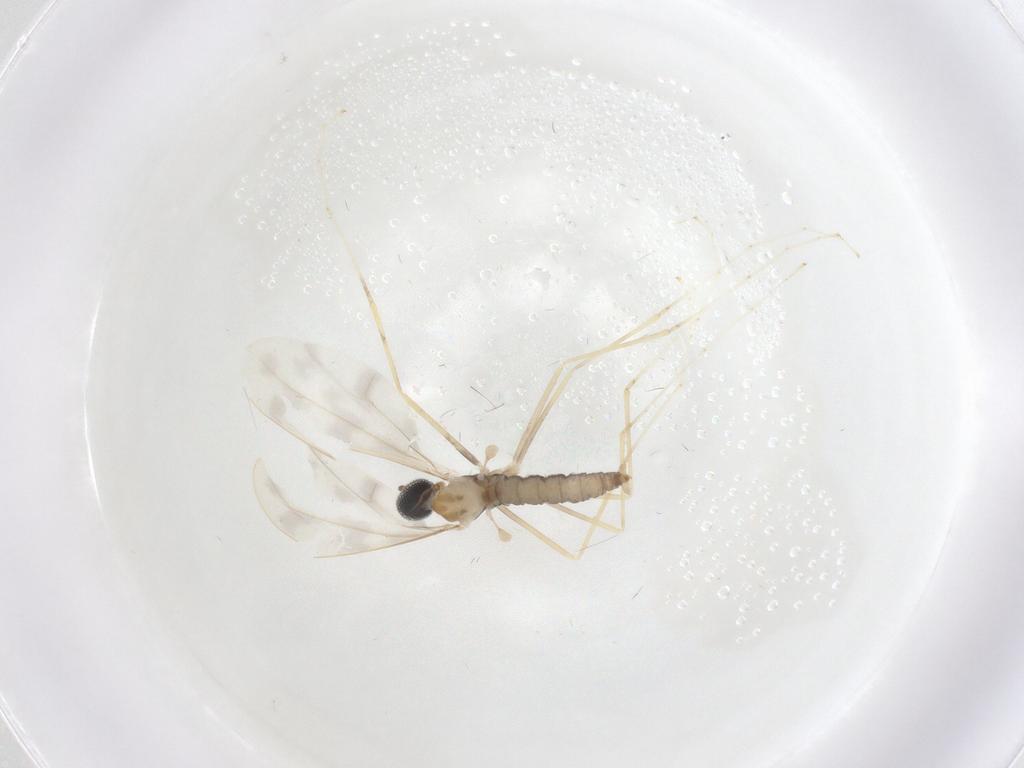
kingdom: Animalia
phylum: Arthropoda
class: Insecta
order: Diptera
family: Cecidomyiidae
